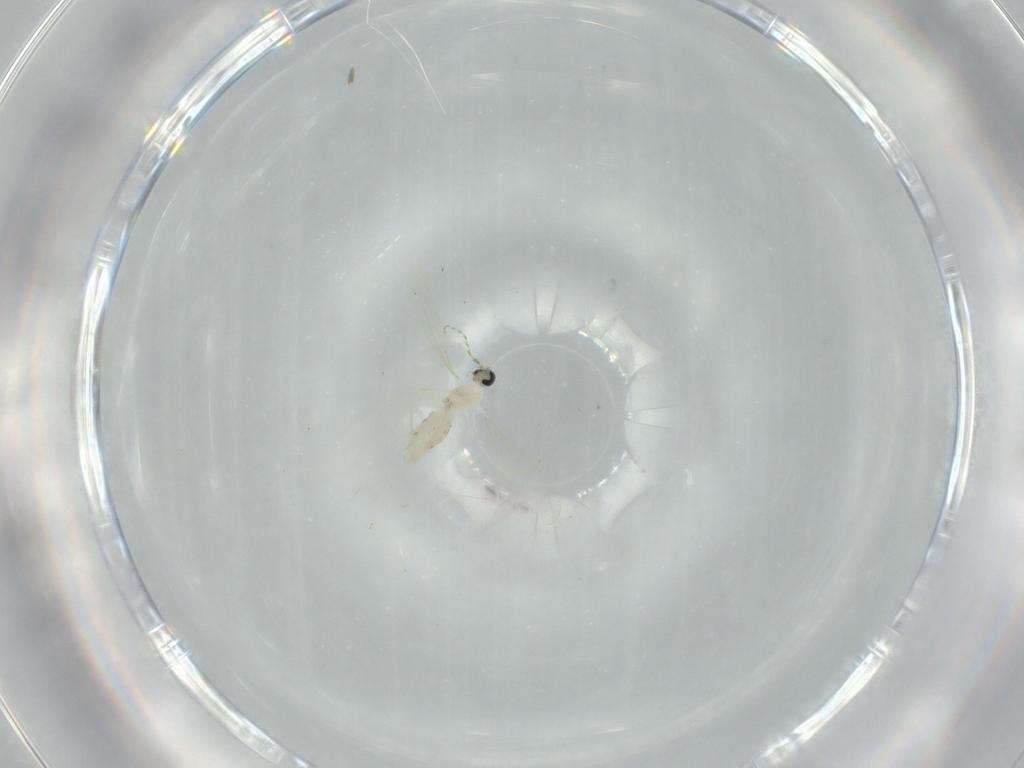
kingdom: Animalia
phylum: Arthropoda
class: Insecta
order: Diptera
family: Cecidomyiidae
